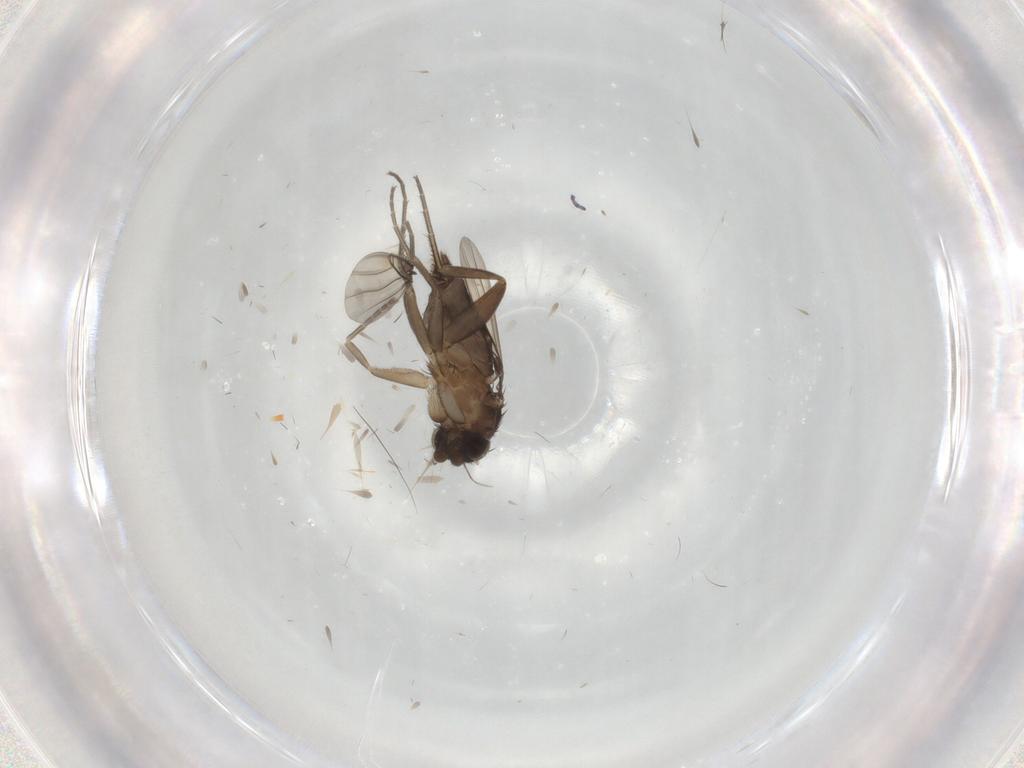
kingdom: Animalia
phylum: Arthropoda
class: Insecta
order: Diptera
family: Phoridae
